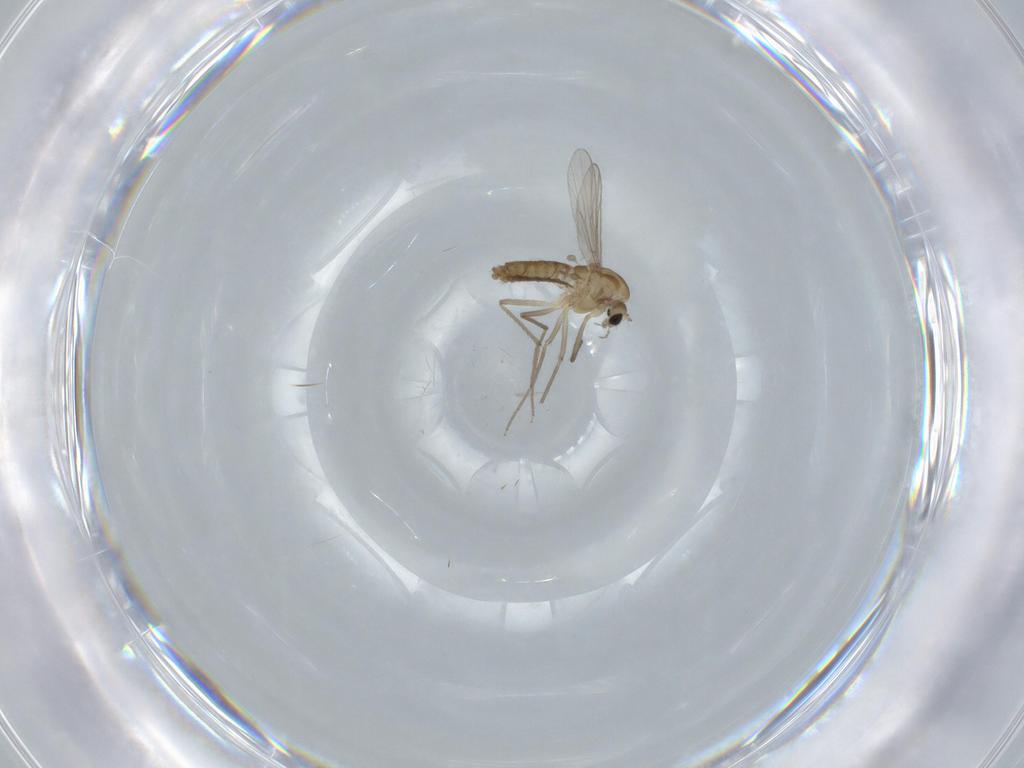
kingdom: Animalia
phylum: Arthropoda
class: Insecta
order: Diptera
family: Chironomidae
